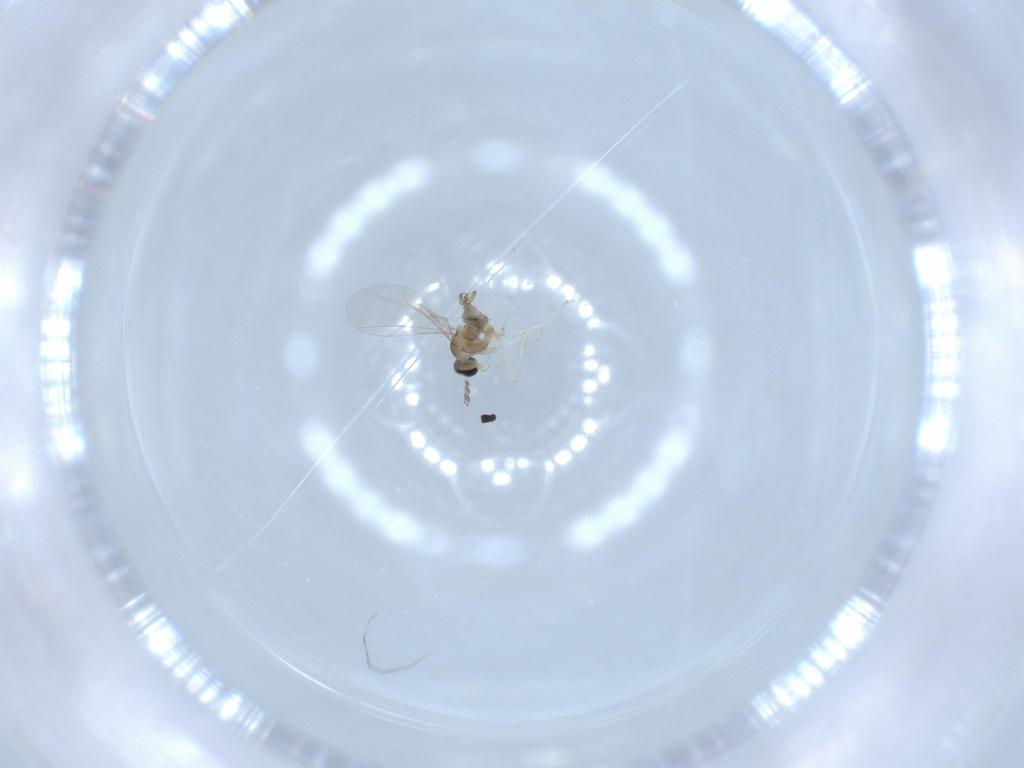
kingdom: Animalia
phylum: Arthropoda
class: Insecta
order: Diptera
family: Cecidomyiidae
